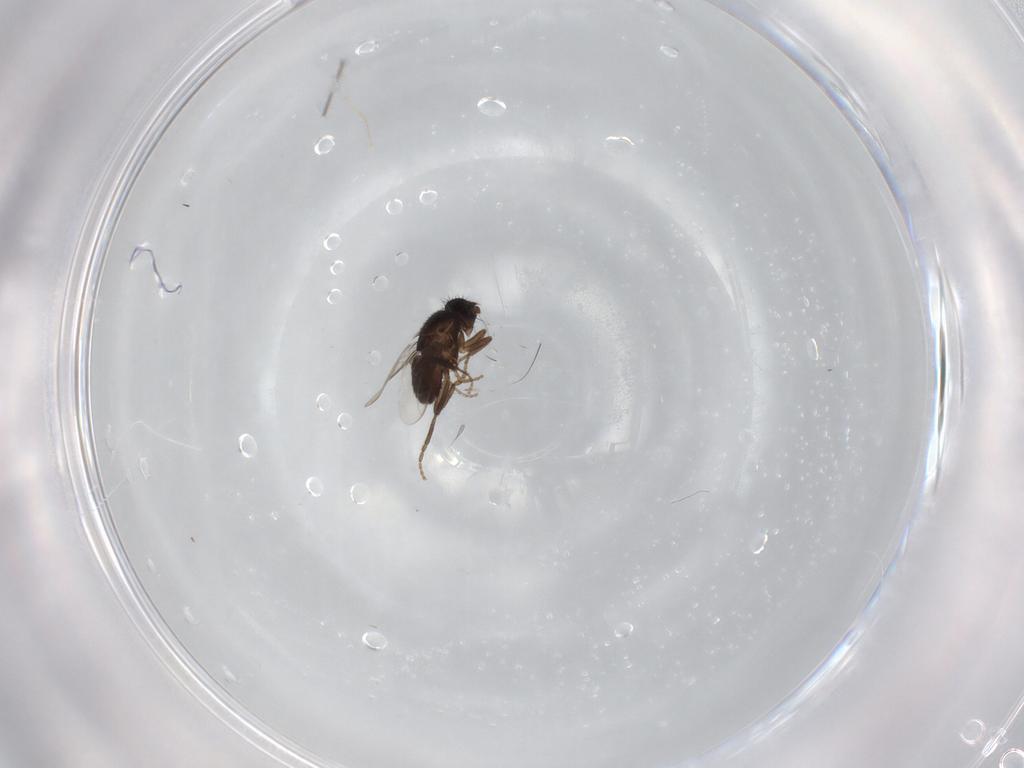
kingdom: Animalia
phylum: Arthropoda
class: Insecta
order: Diptera
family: Sphaeroceridae
